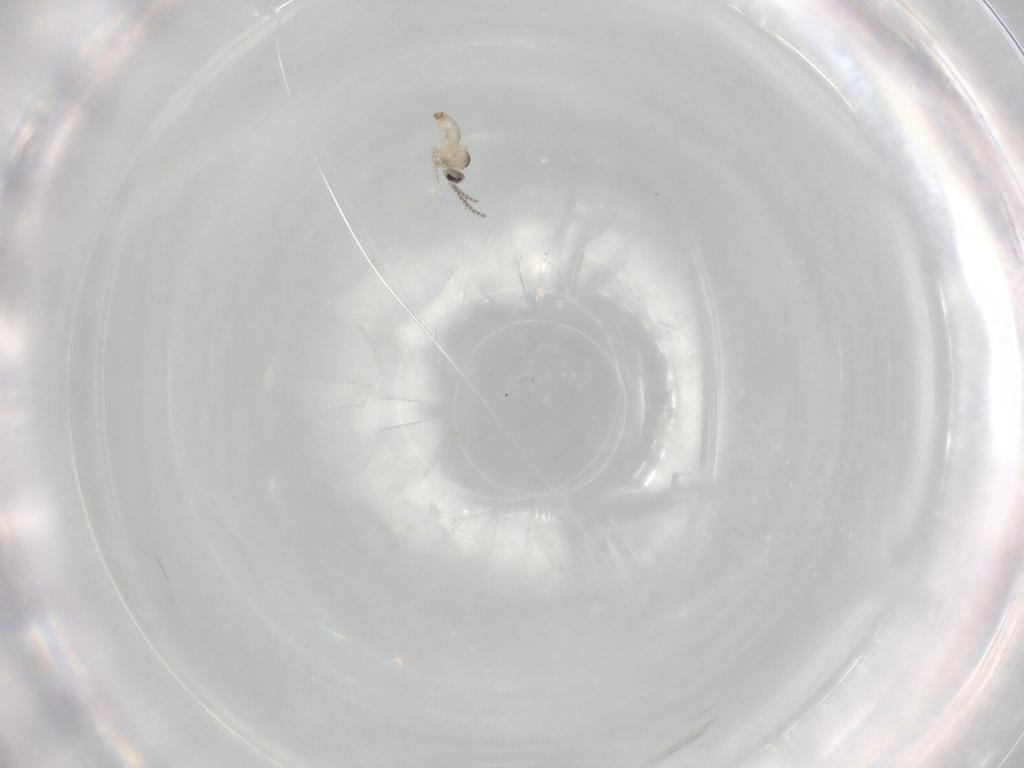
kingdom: Animalia
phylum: Arthropoda
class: Insecta
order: Diptera
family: Cecidomyiidae
